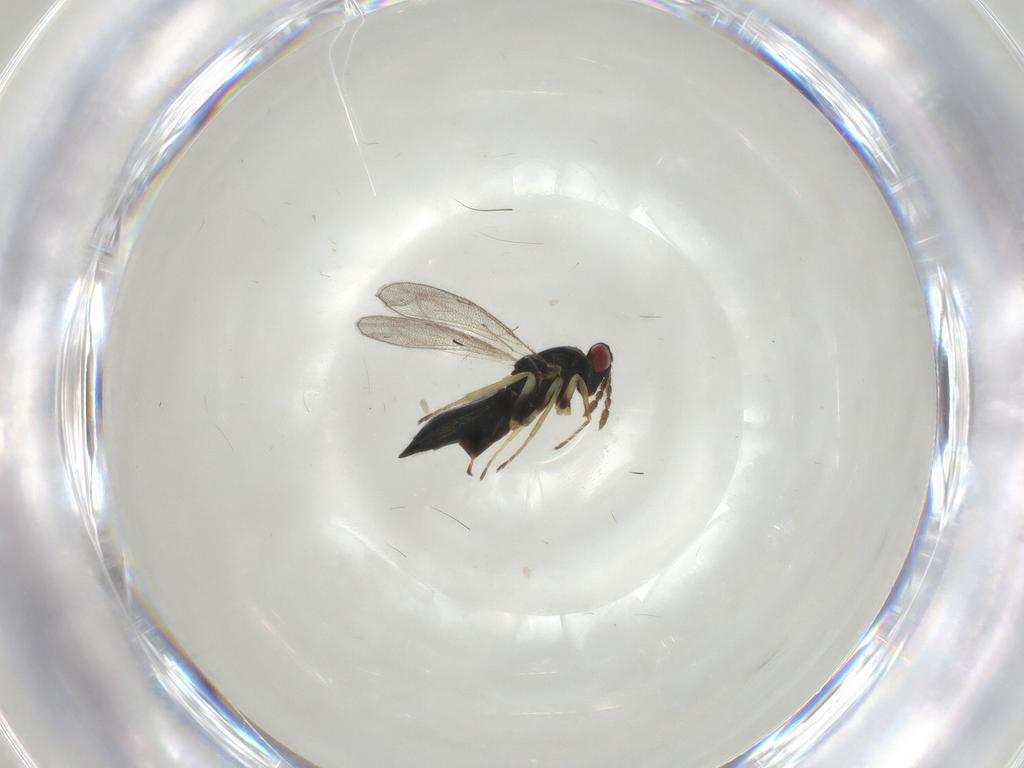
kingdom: Animalia
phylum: Arthropoda
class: Insecta
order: Hymenoptera
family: Eulophidae
